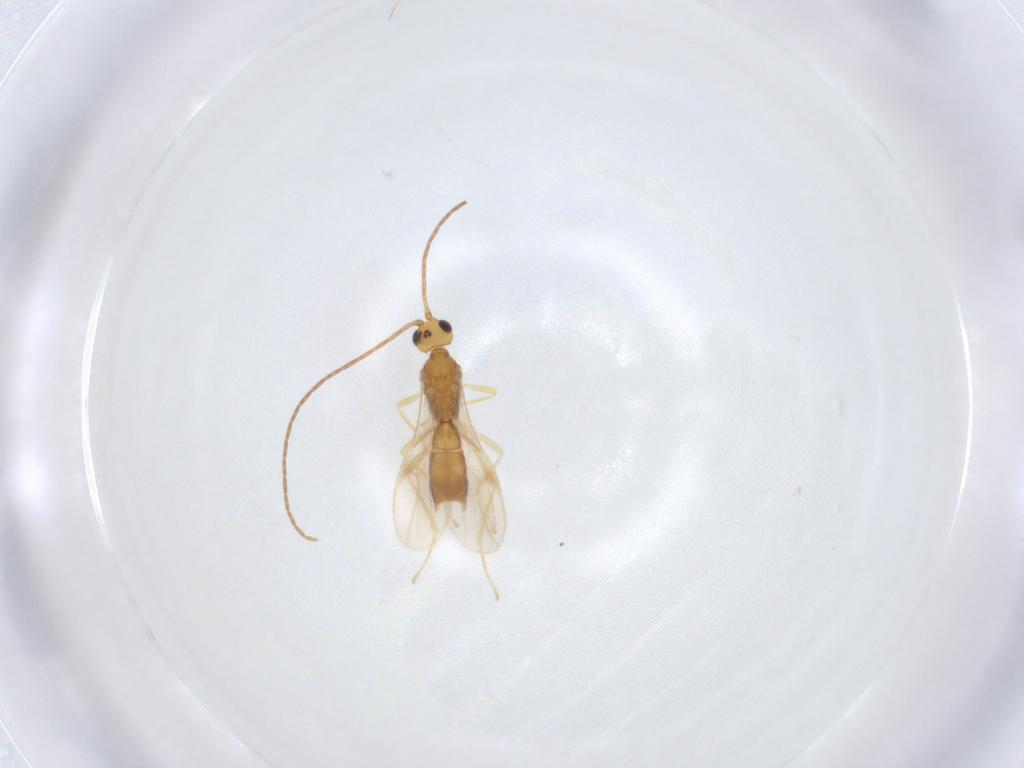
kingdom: Animalia
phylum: Arthropoda
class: Insecta
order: Hymenoptera
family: Braconidae
